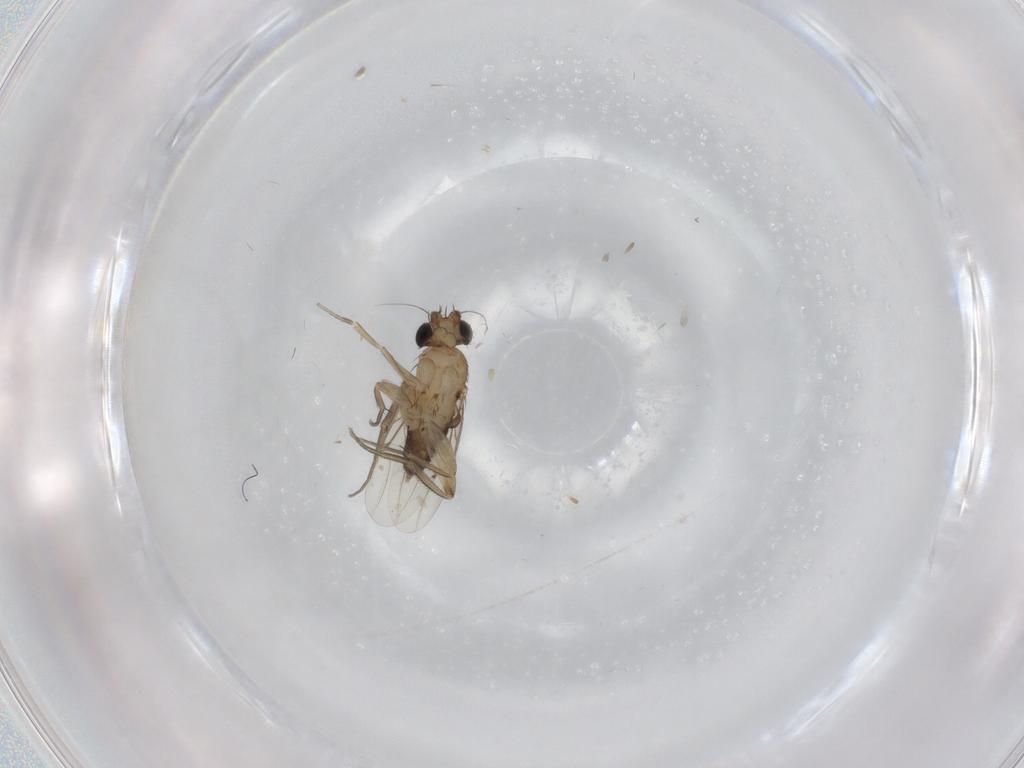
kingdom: Animalia
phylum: Arthropoda
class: Insecta
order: Diptera
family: Phoridae
